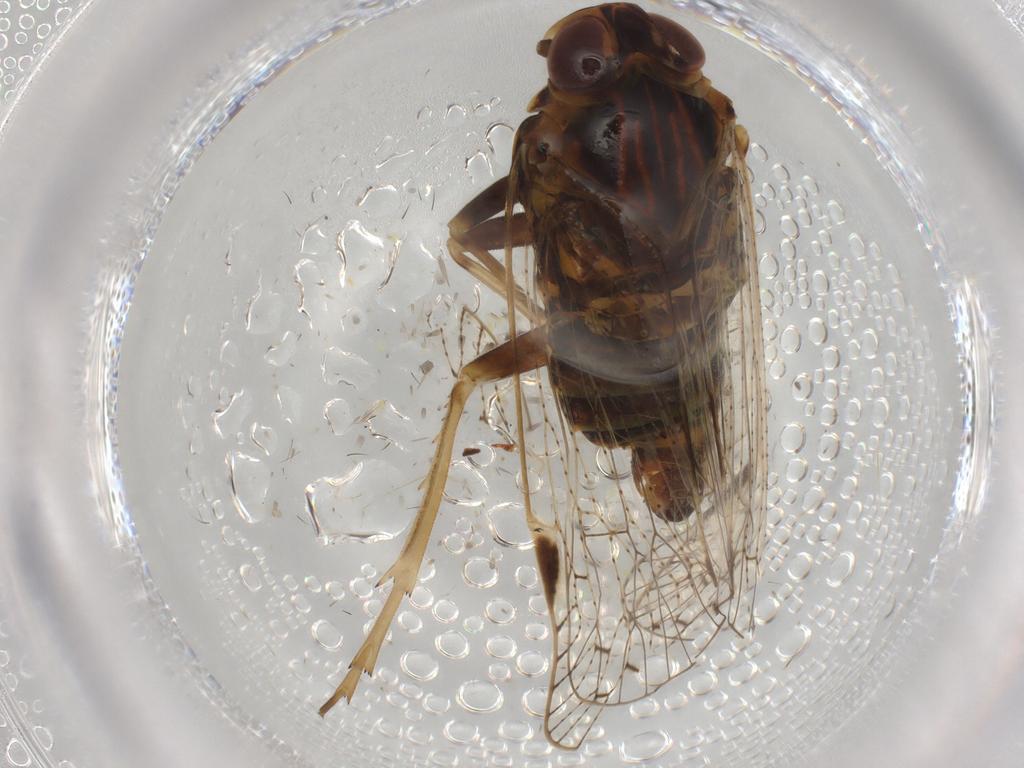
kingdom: Animalia
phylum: Arthropoda
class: Insecta
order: Hemiptera
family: Cixiidae
